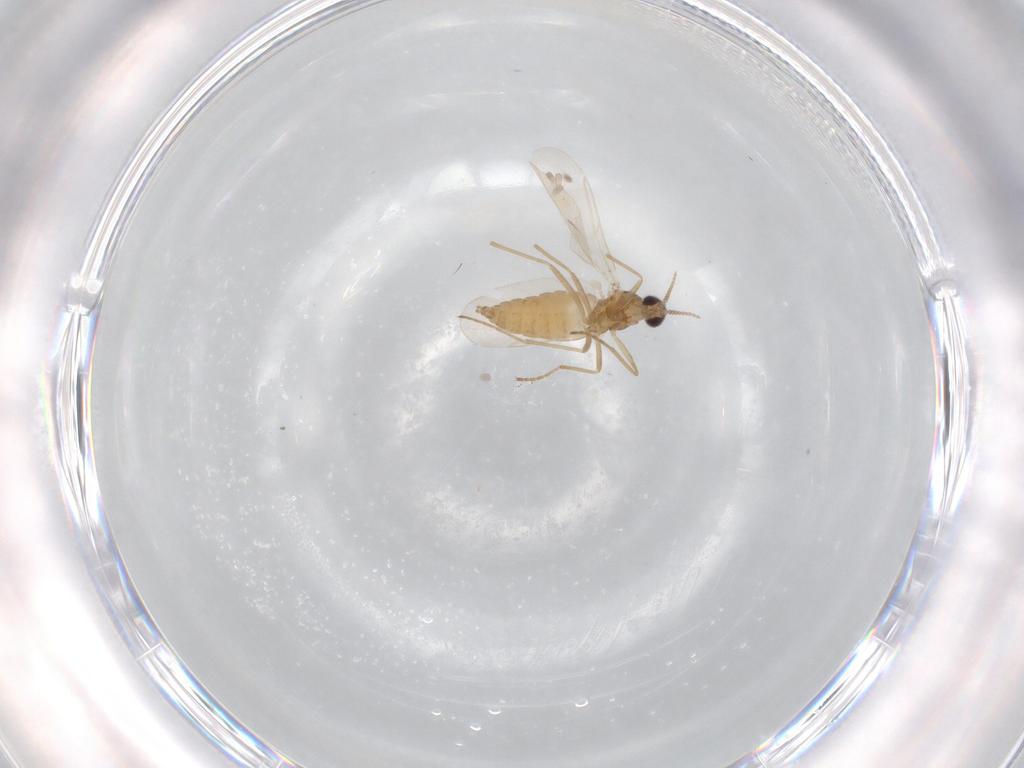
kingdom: Animalia
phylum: Arthropoda
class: Insecta
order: Diptera
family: Cecidomyiidae
